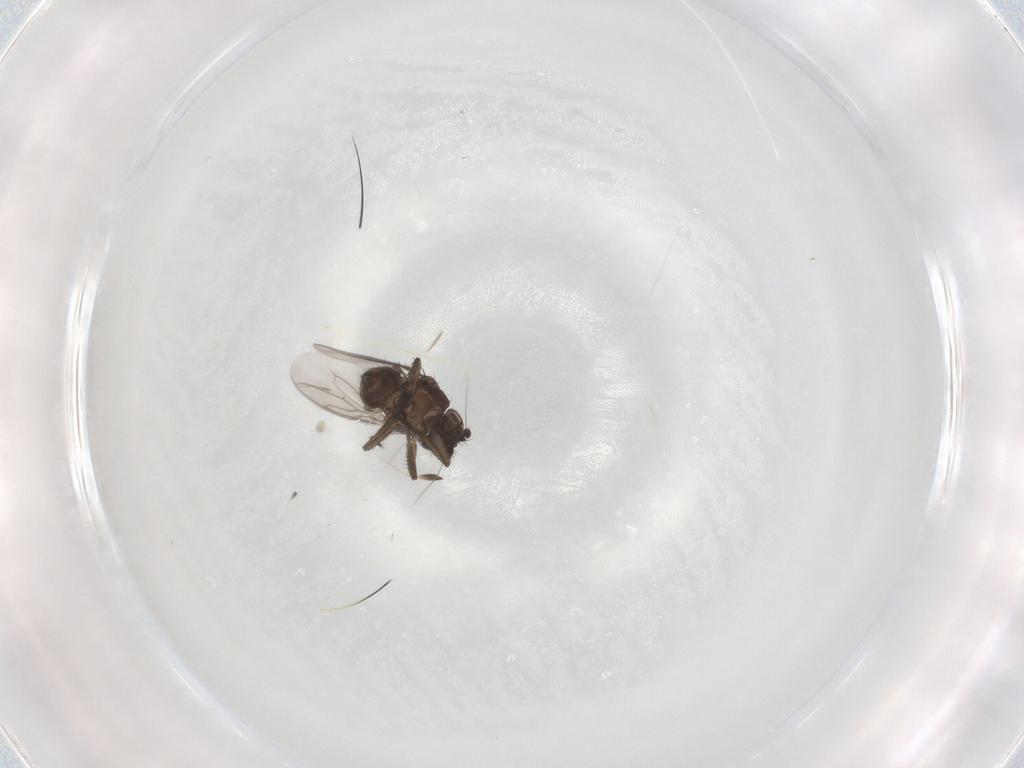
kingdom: Animalia
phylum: Arthropoda
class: Insecta
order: Diptera
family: Sphaeroceridae
